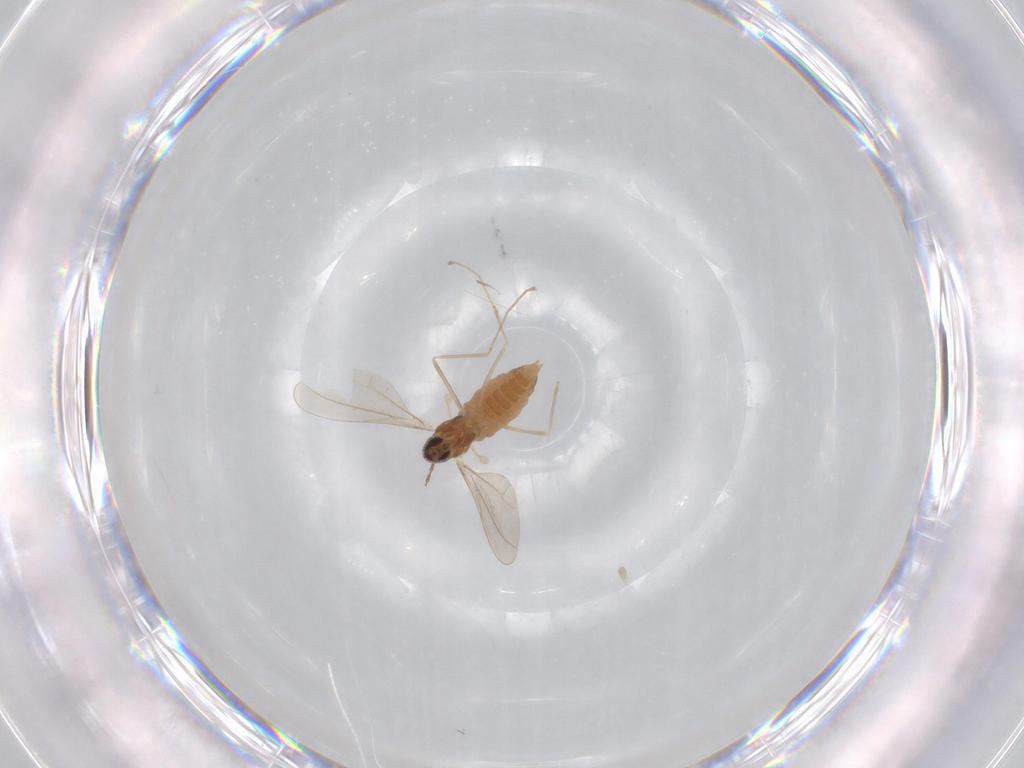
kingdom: Animalia
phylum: Arthropoda
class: Insecta
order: Diptera
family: Cecidomyiidae
